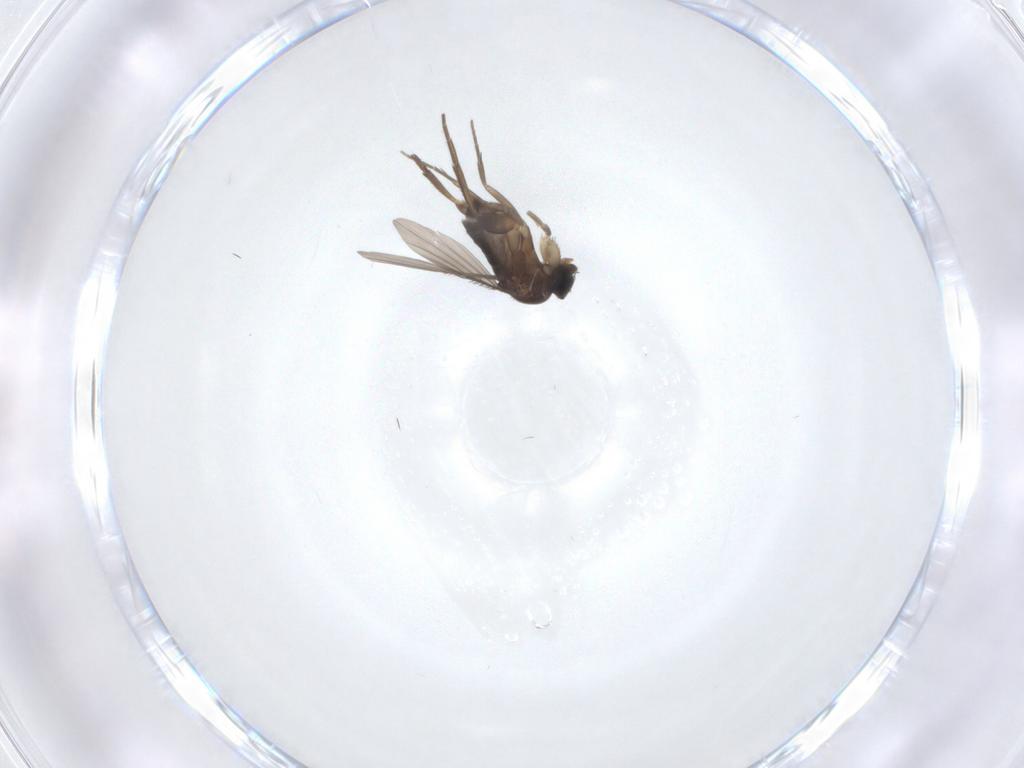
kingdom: Animalia
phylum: Arthropoda
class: Insecta
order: Diptera
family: Phoridae
